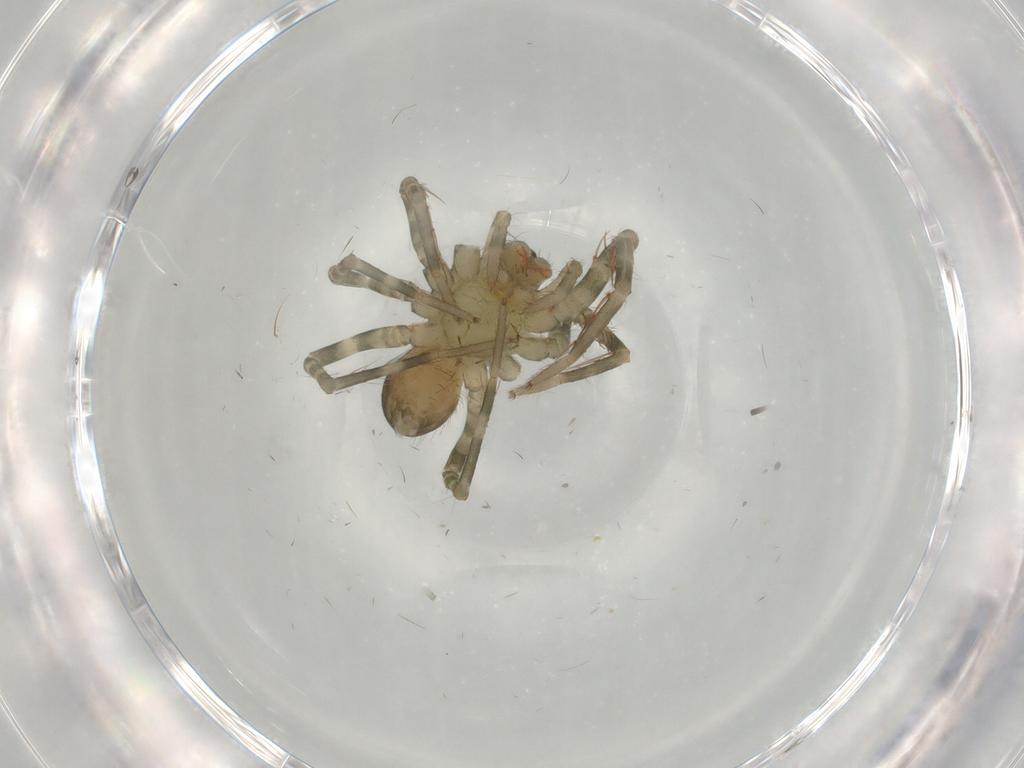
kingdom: Animalia
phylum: Arthropoda
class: Arachnida
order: Araneae
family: Ctenidae
